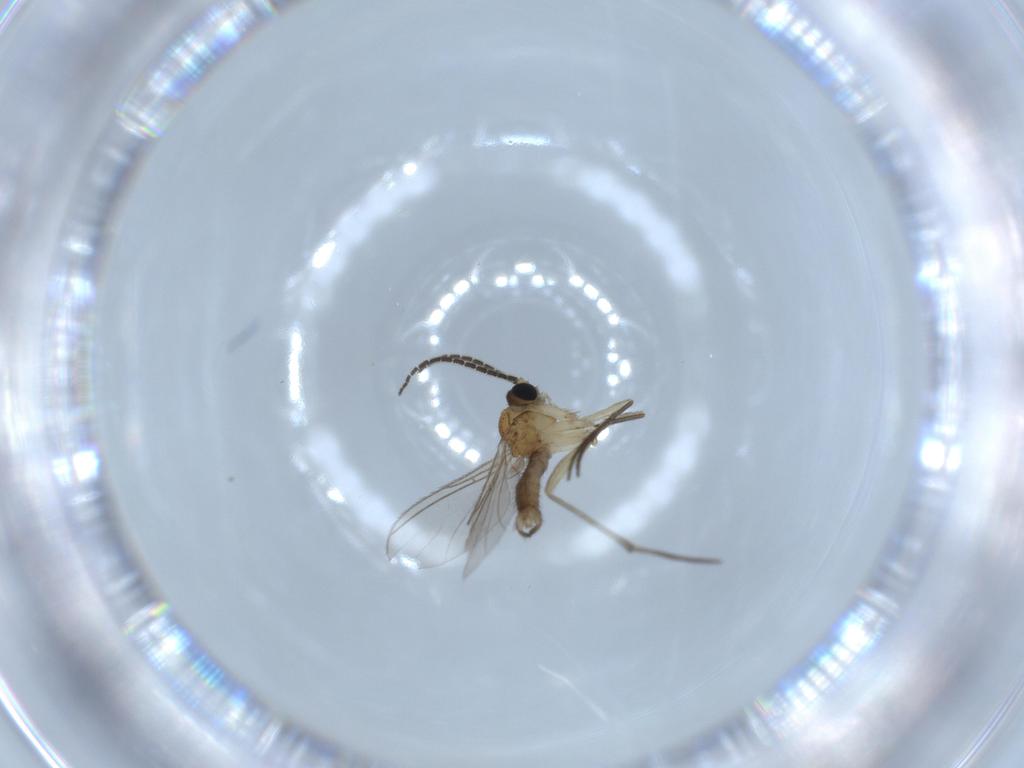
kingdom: Animalia
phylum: Arthropoda
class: Insecta
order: Diptera
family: Sciaridae
